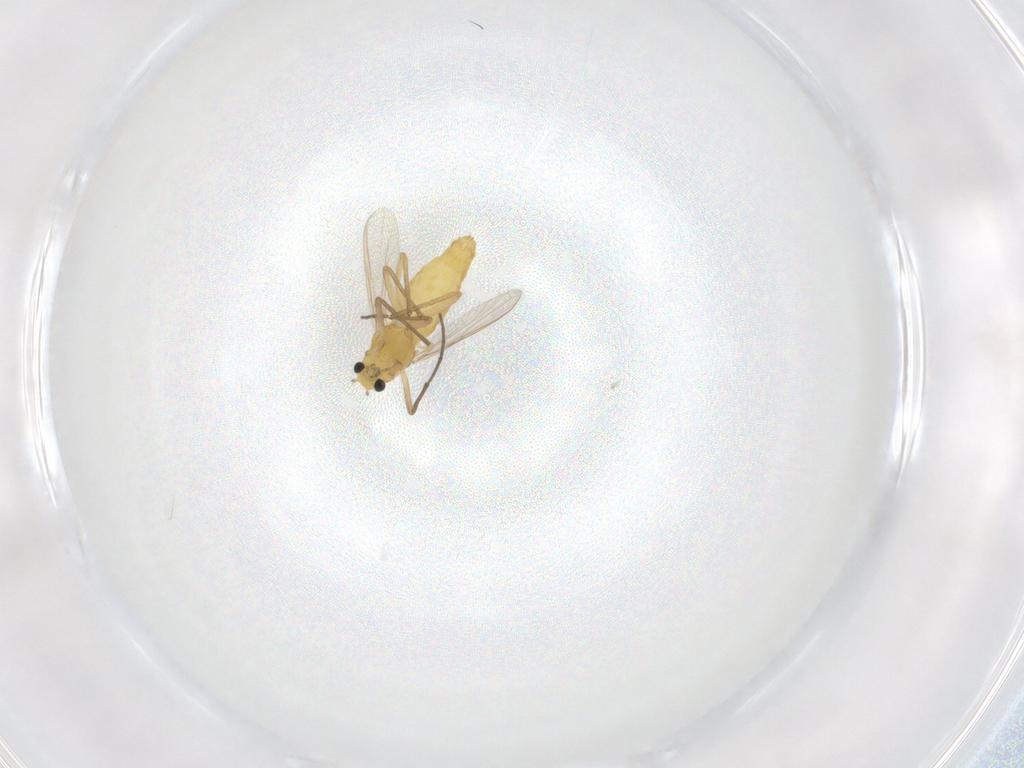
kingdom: Animalia
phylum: Arthropoda
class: Insecta
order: Diptera
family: Chironomidae
